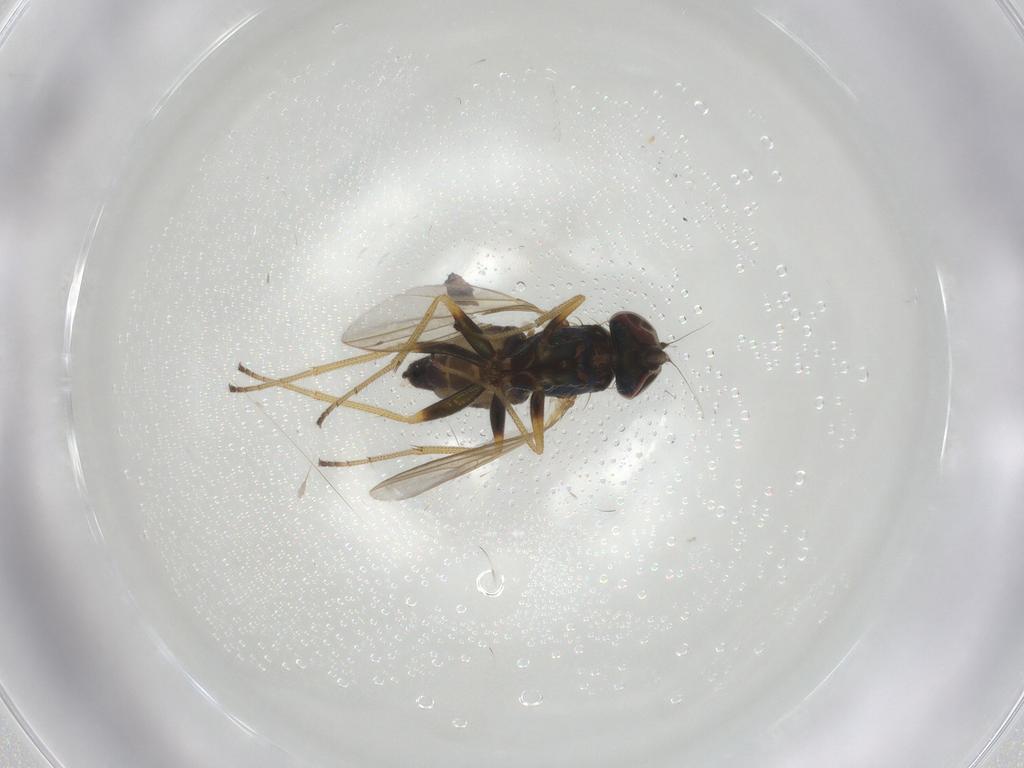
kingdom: Animalia
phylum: Arthropoda
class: Insecta
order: Diptera
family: Dolichopodidae
